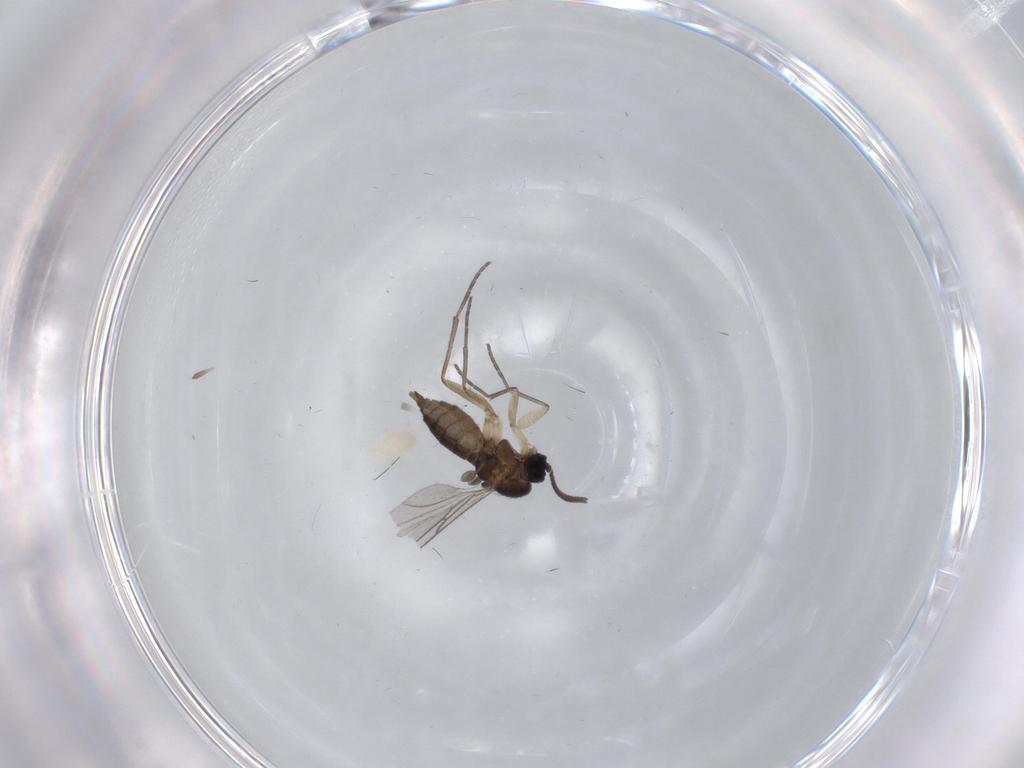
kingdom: Animalia
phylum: Arthropoda
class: Insecta
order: Diptera
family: Sciaridae
